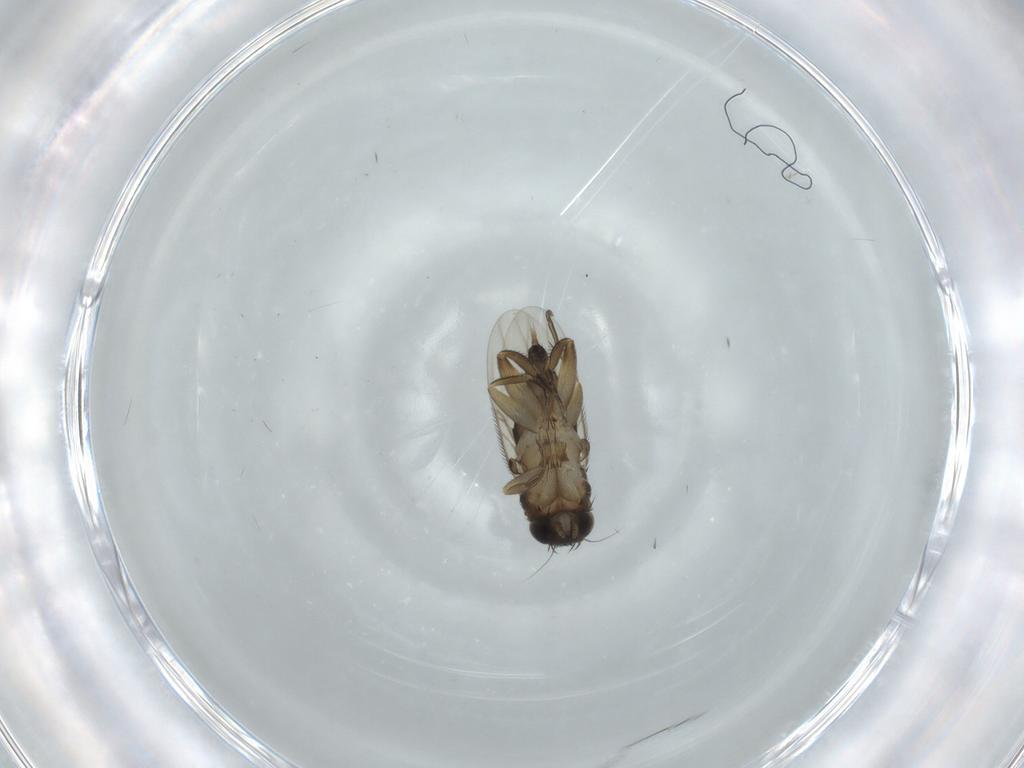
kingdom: Animalia
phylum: Arthropoda
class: Insecta
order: Diptera
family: Phoridae
